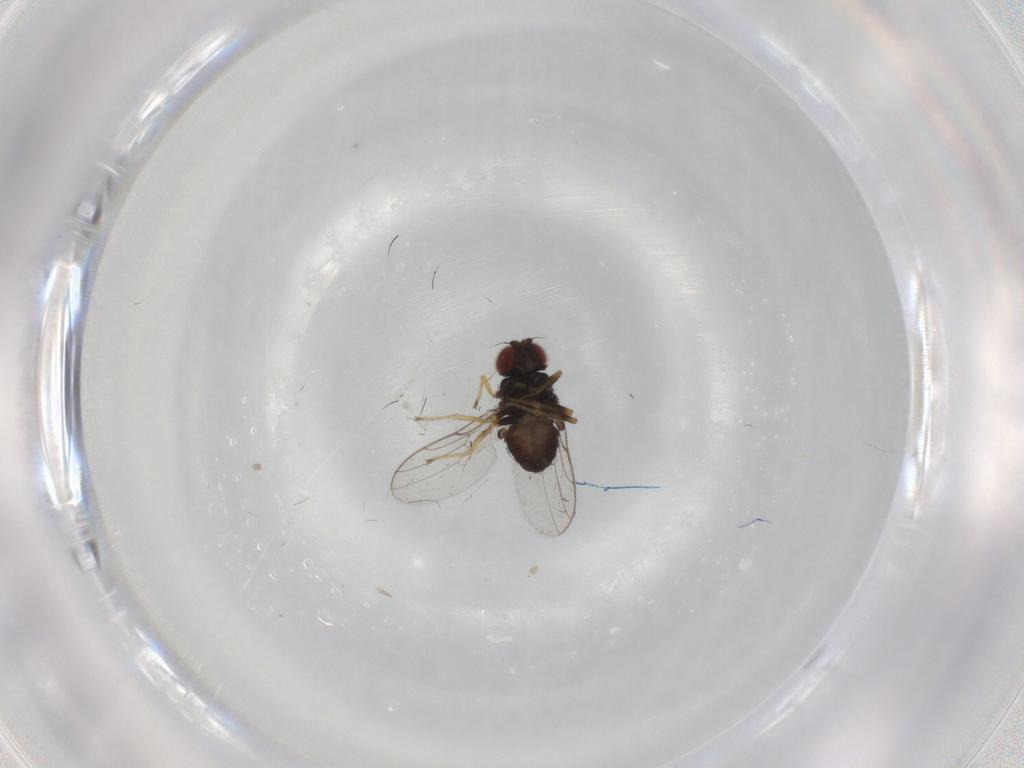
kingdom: Animalia
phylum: Arthropoda
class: Insecta
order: Diptera
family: Chloropidae
